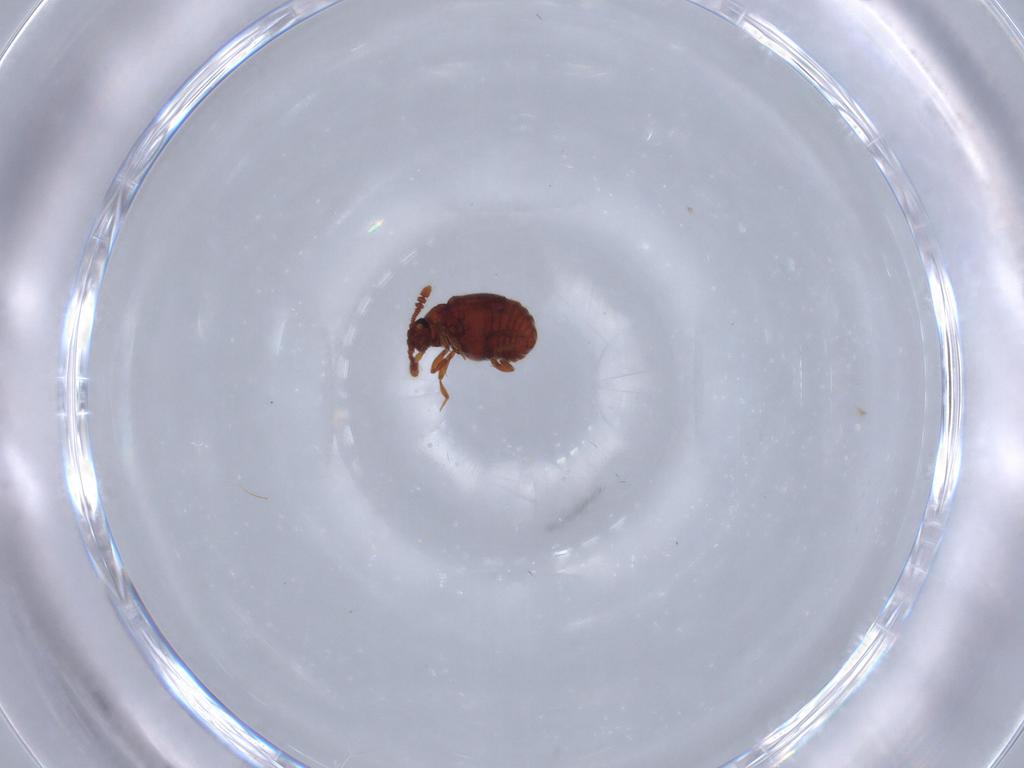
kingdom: Animalia
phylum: Arthropoda
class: Insecta
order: Coleoptera
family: Staphylinidae
